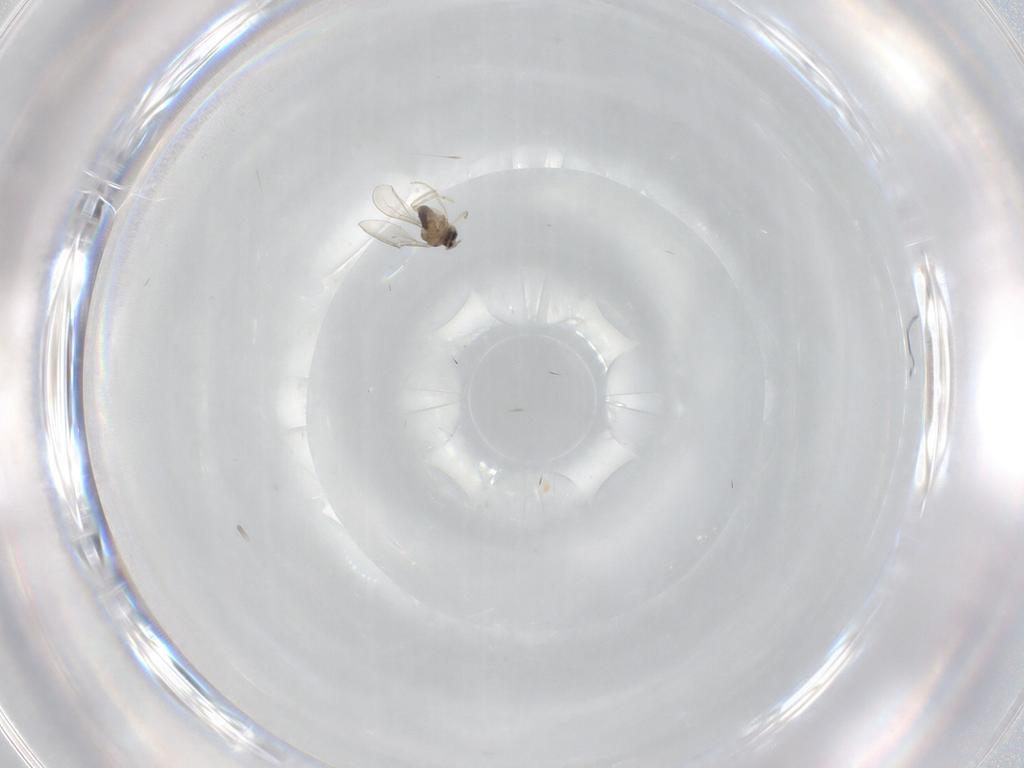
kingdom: Animalia
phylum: Arthropoda
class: Insecta
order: Diptera
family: Cecidomyiidae
